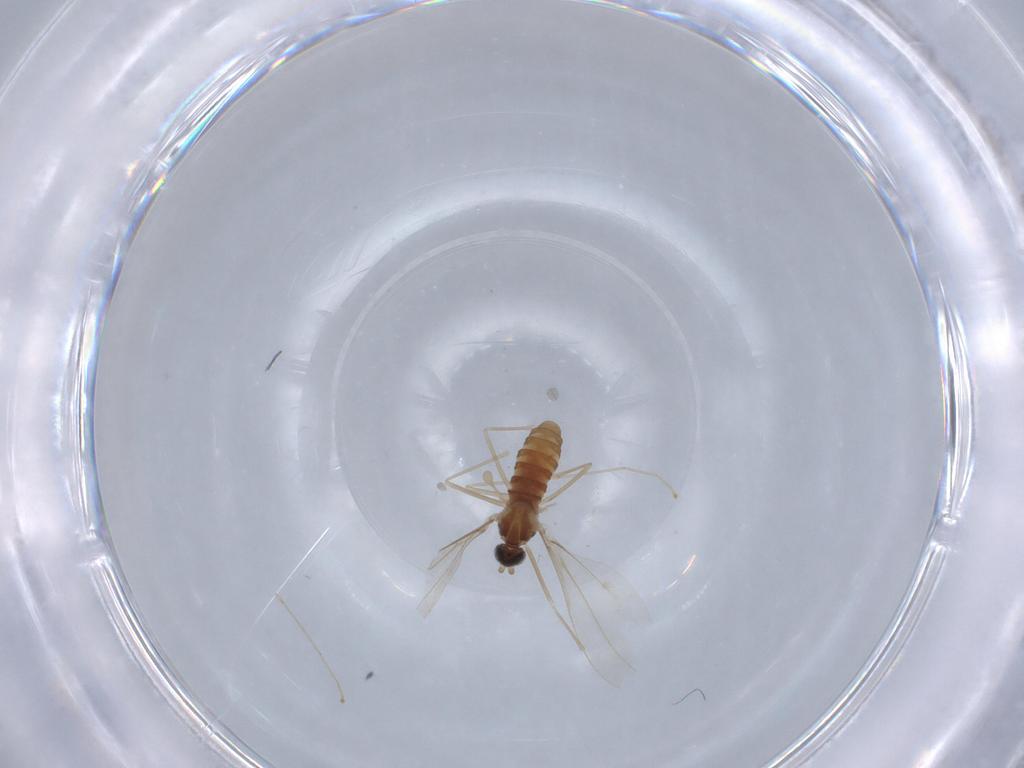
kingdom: Animalia
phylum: Arthropoda
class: Insecta
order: Diptera
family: Cecidomyiidae
